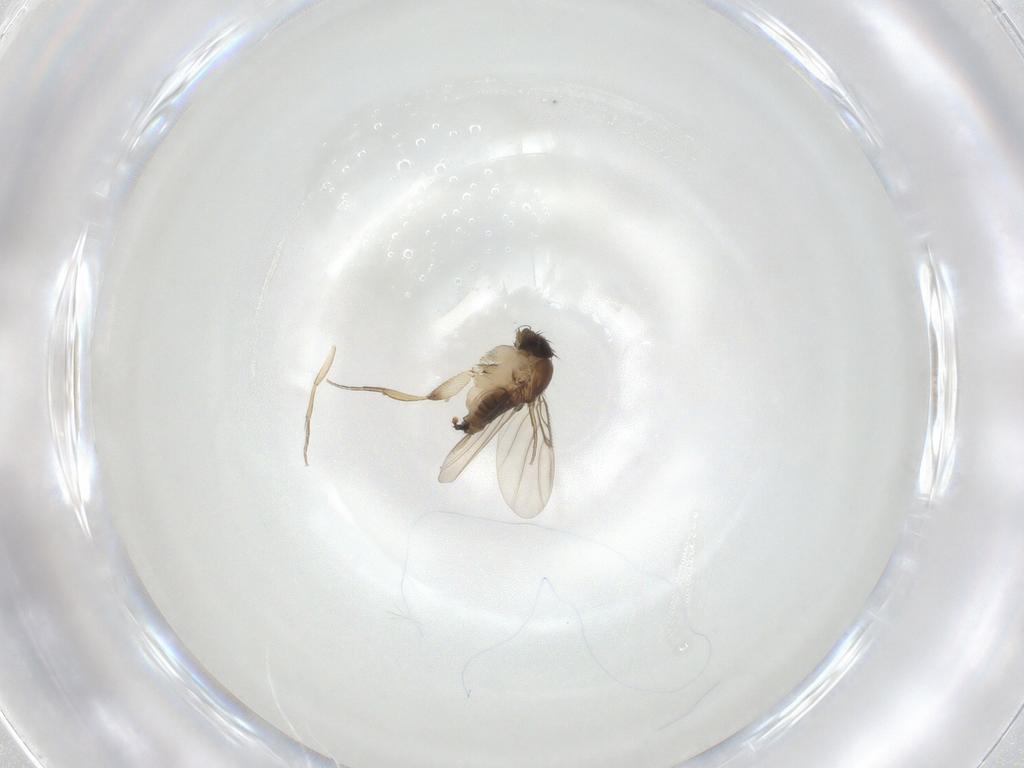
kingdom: Animalia
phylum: Arthropoda
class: Insecta
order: Diptera
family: Phoridae
